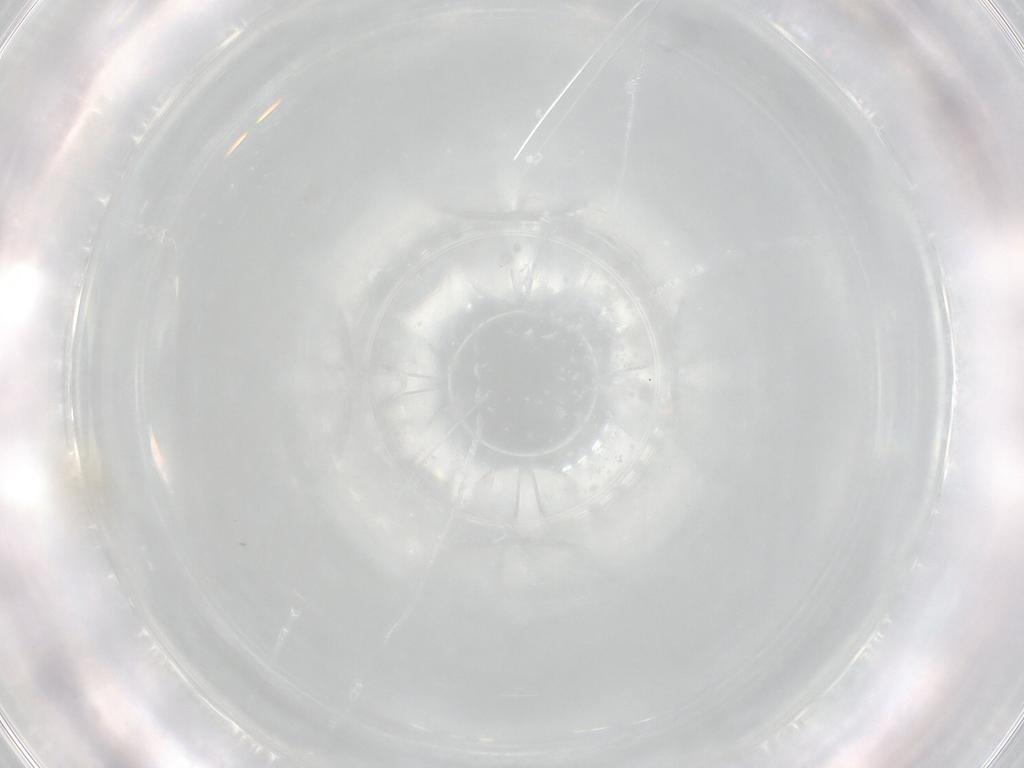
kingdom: Animalia
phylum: Arthropoda
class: Insecta
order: Hemiptera
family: Aleyrodidae
